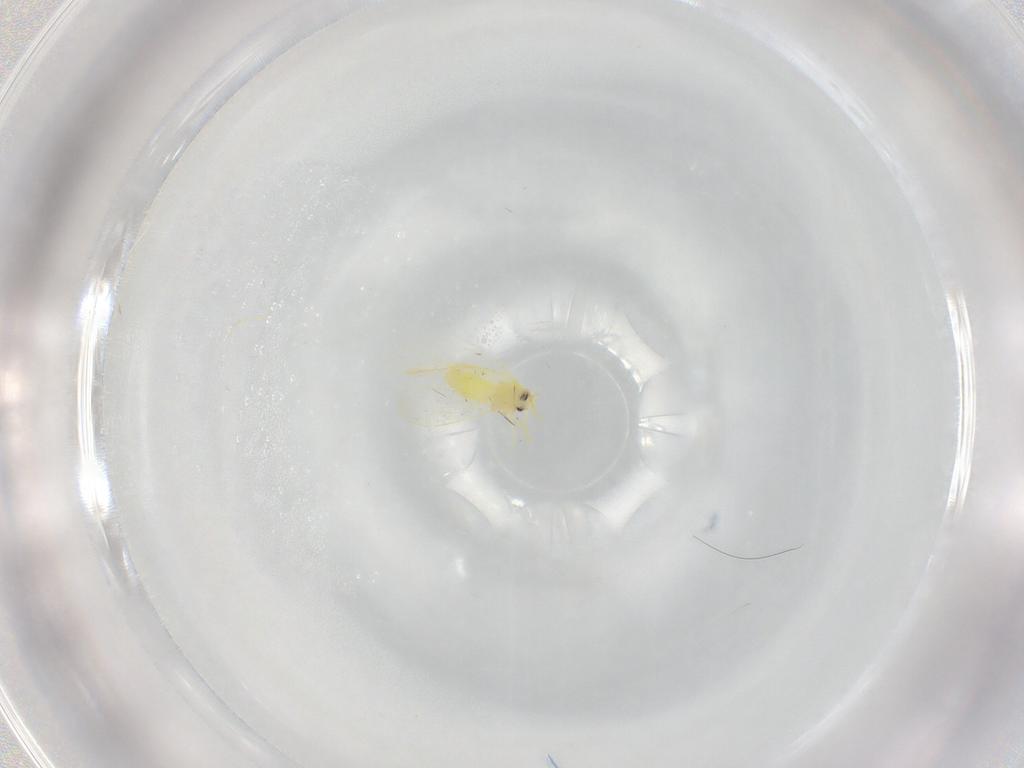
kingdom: Animalia
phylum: Arthropoda
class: Insecta
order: Hemiptera
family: Aleyrodidae
